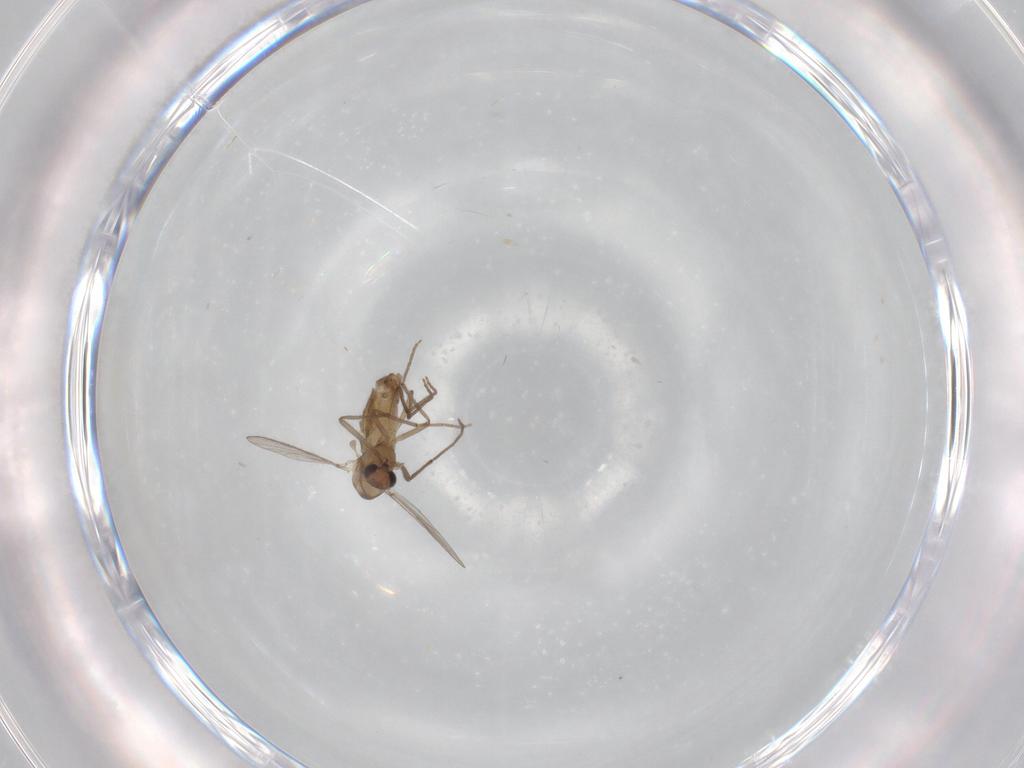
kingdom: Animalia
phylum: Arthropoda
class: Insecta
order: Diptera
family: Chironomidae
